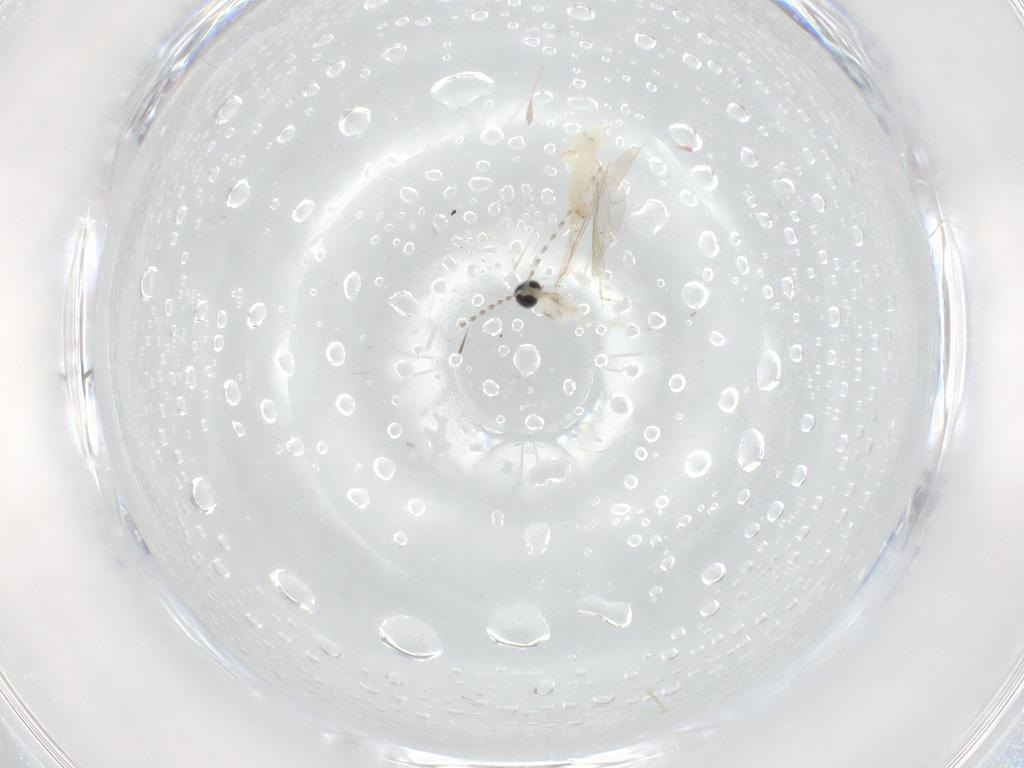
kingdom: Animalia
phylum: Arthropoda
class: Insecta
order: Diptera
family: Cecidomyiidae
